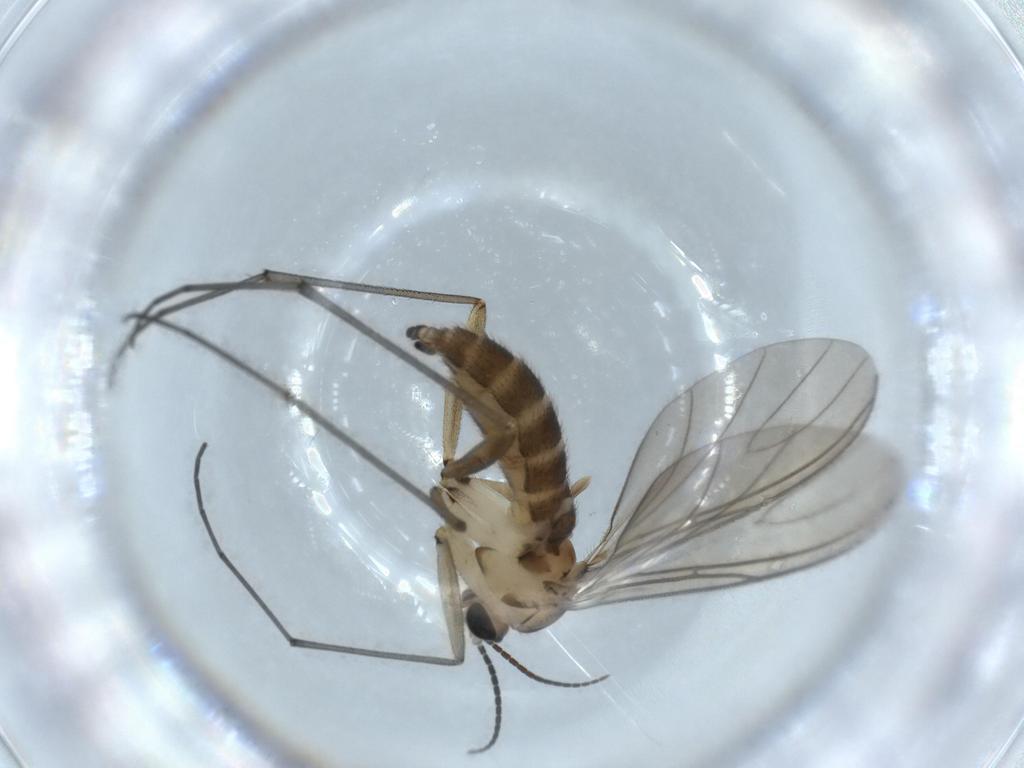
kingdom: Animalia
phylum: Arthropoda
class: Insecta
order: Diptera
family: Sciaridae
